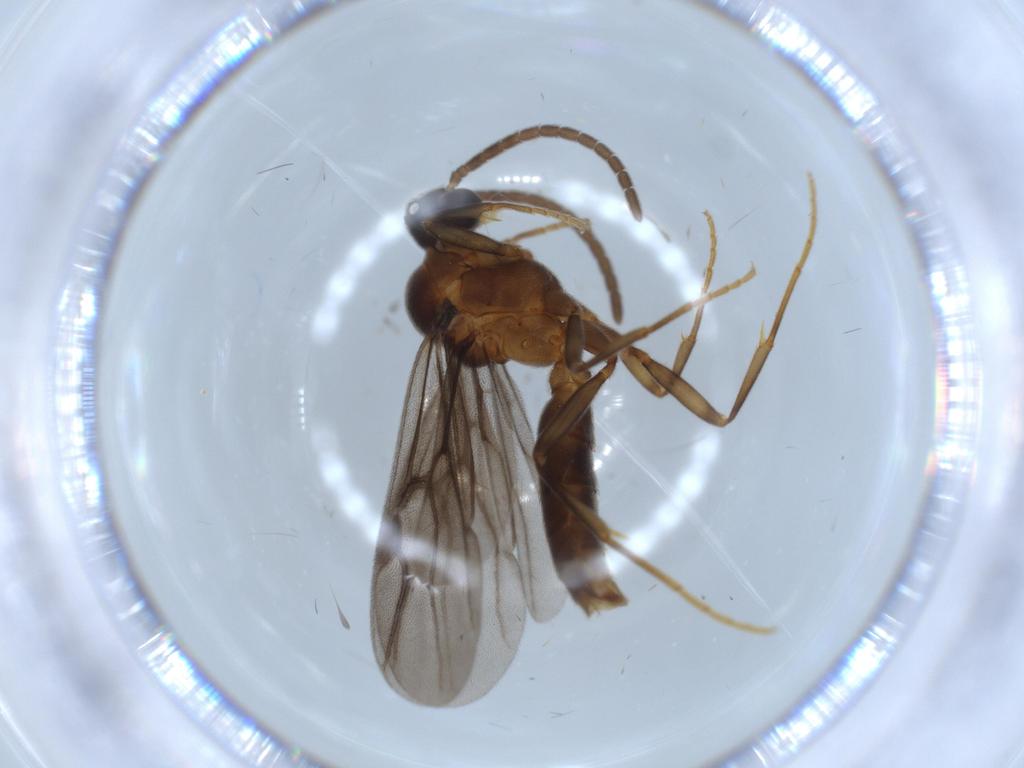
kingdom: Animalia
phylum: Arthropoda
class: Insecta
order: Hymenoptera
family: Formicidae
